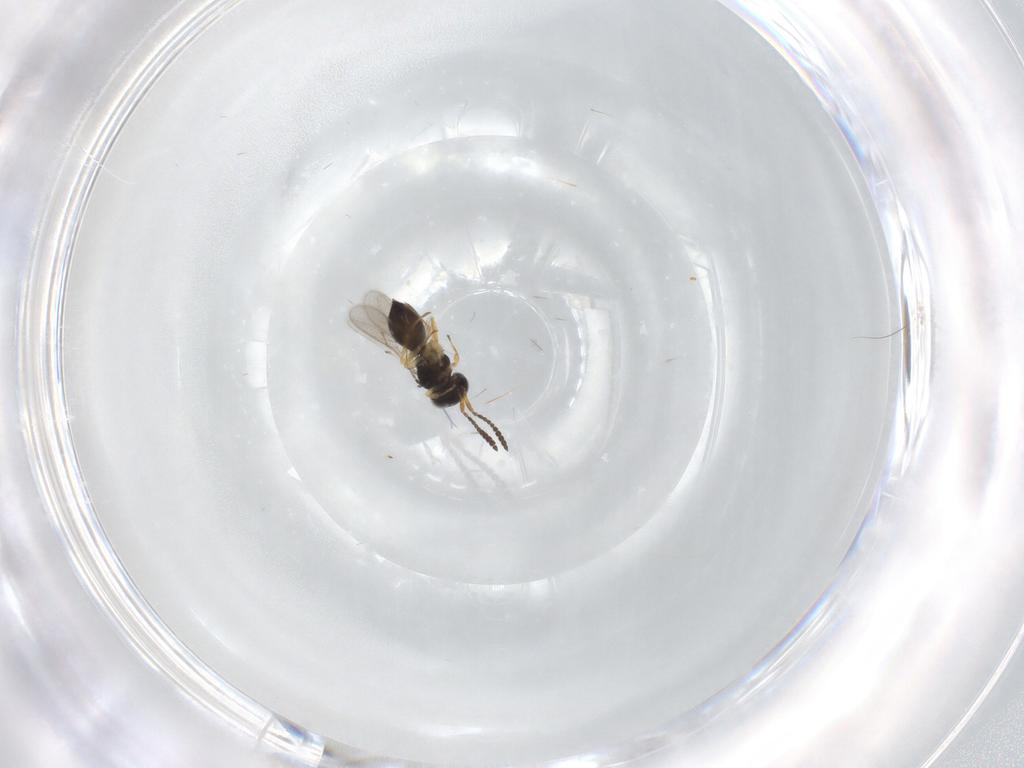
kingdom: Animalia
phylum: Arthropoda
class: Insecta
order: Hymenoptera
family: Scelionidae
